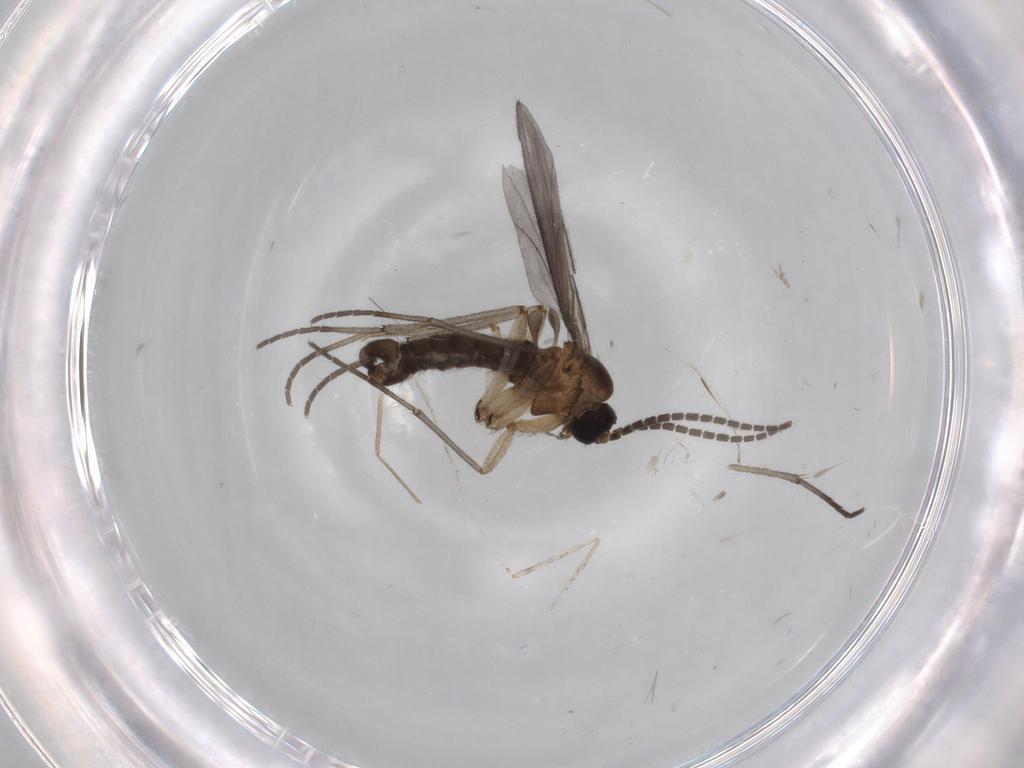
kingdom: Animalia
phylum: Arthropoda
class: Insecta
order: Diptera
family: Sciaridae
